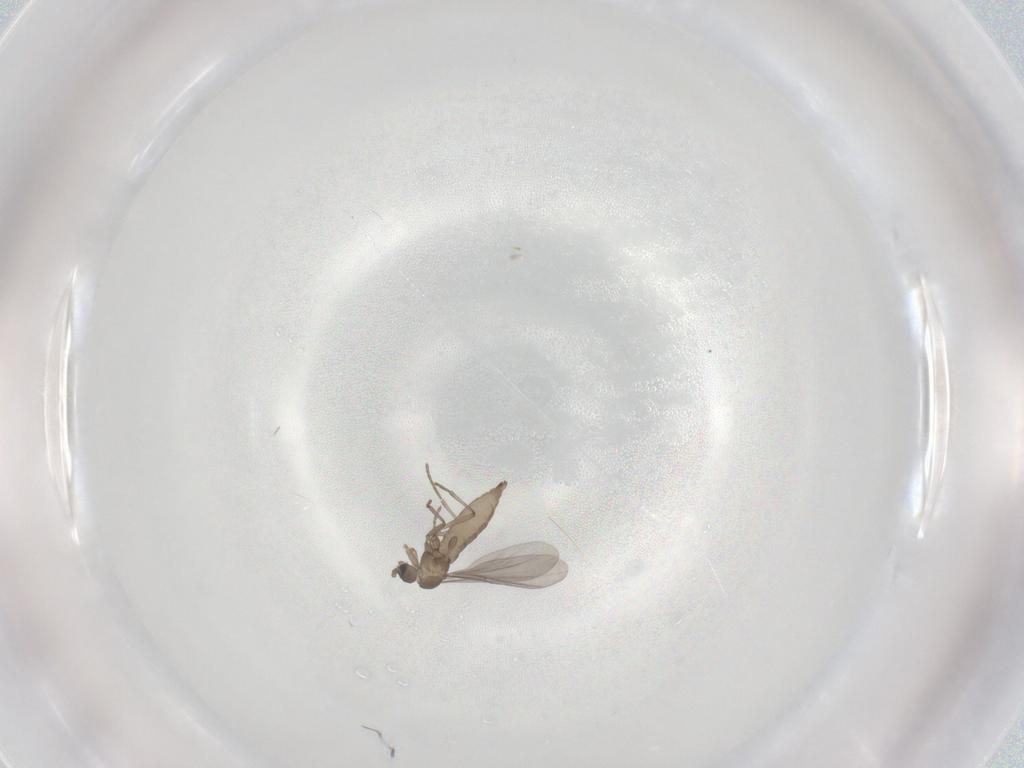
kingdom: Animalia
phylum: Arthropoda
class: Insecta
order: Diptera
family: Sciaridae
